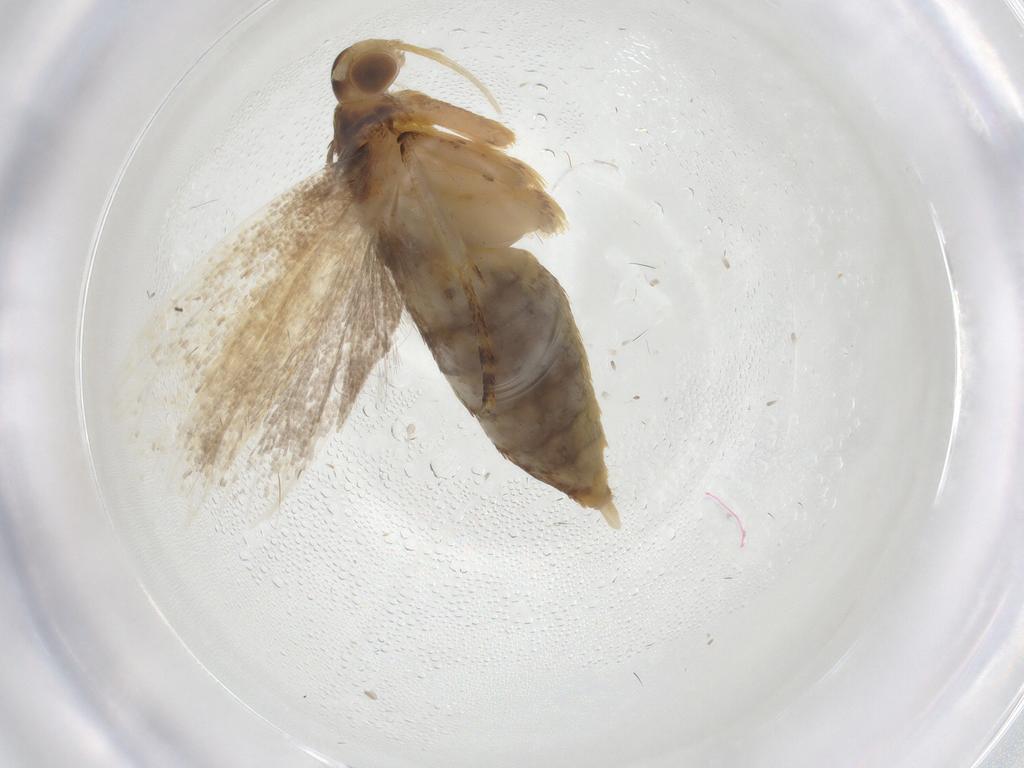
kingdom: Animalia
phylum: Arthropoda
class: Insecta
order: Lepidoptera
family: Lecithoceridae
